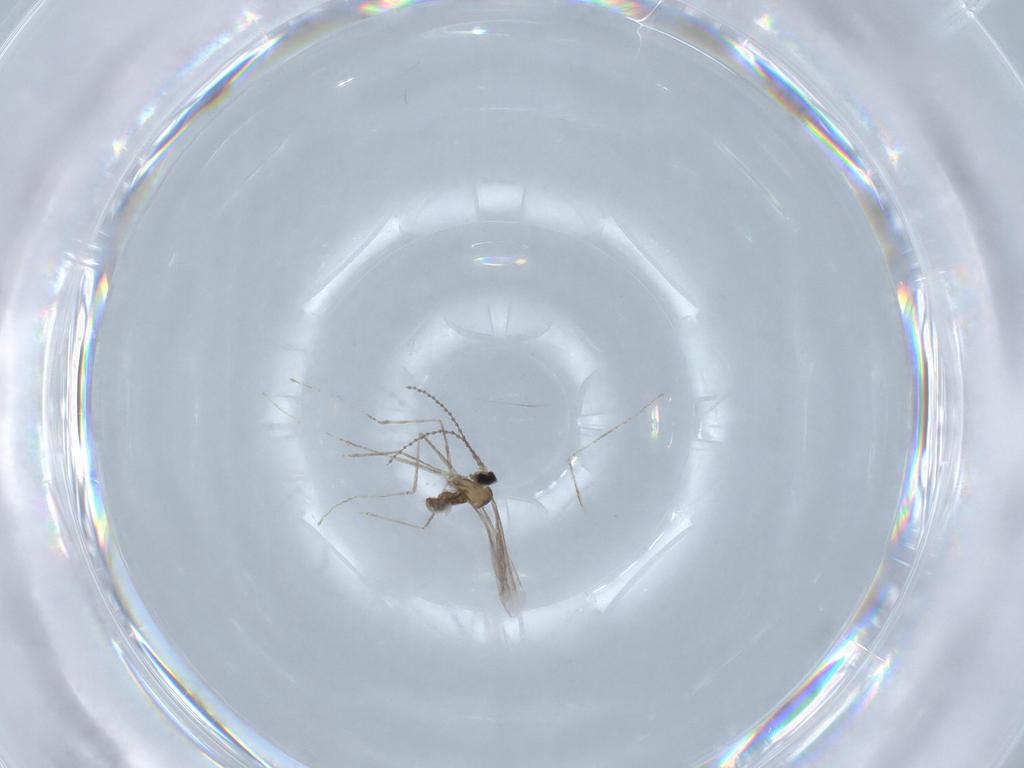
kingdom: Animalia
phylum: Arthropoda
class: Insecta
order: Diptera
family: Cecidomyiidae
